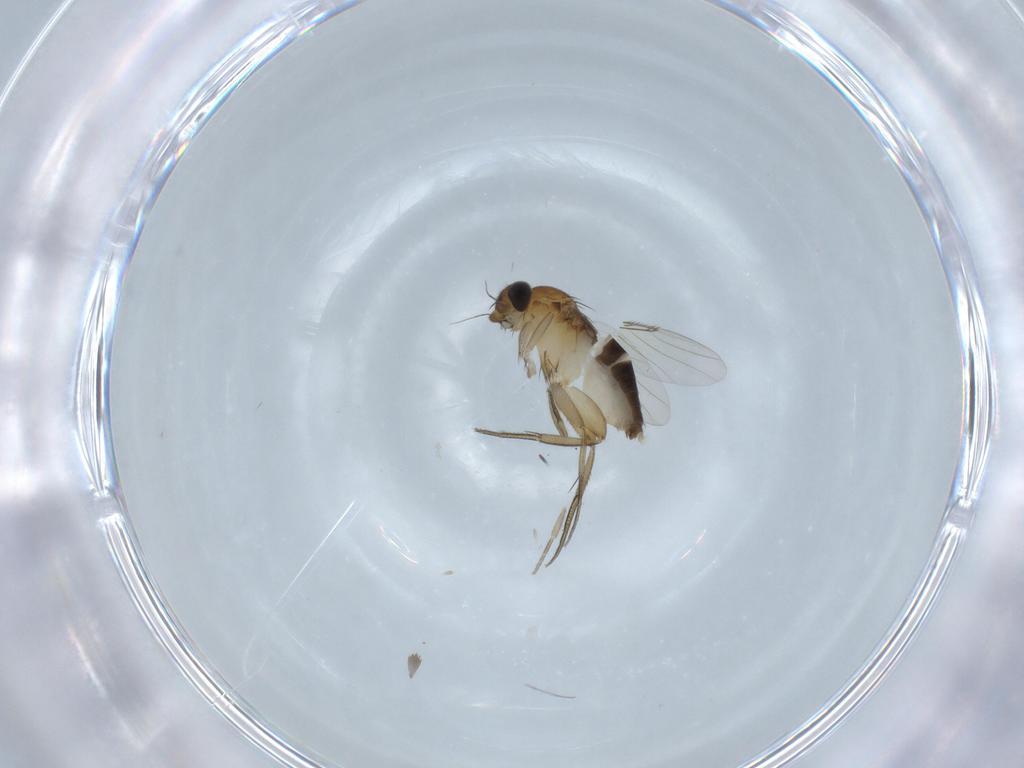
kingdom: Animalia
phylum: Arthropoda
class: Insecta
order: Diptera
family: Phoridae
